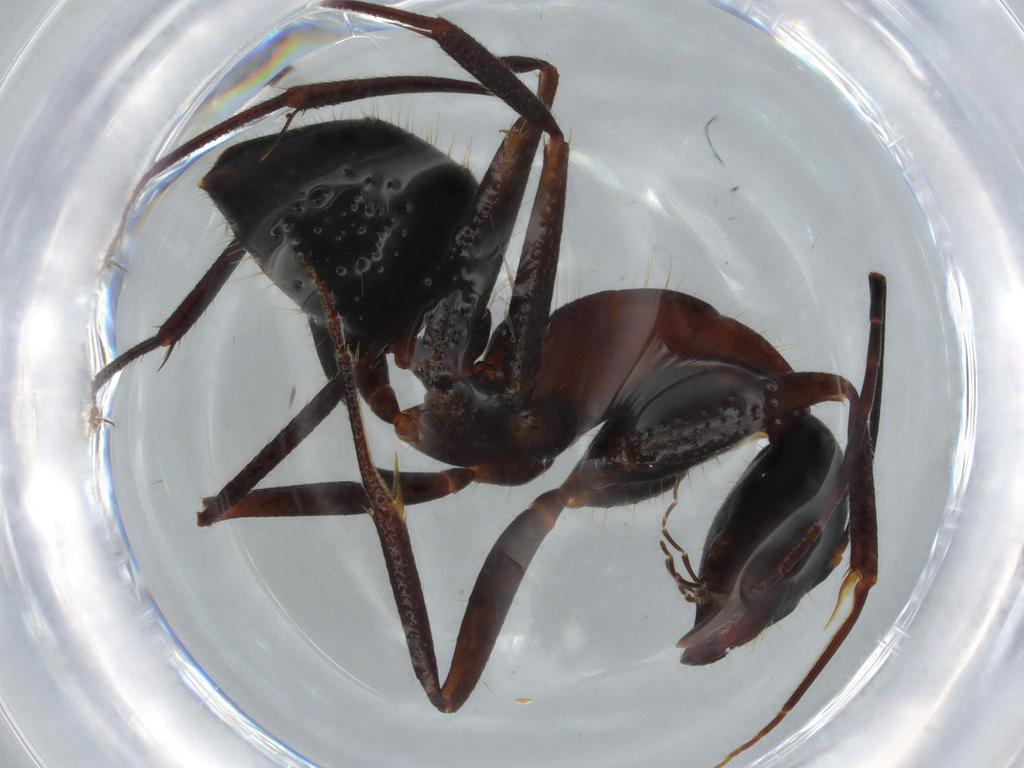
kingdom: Animalia
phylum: Arthropoda
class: Insecta
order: Hymenoptera
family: Formicidae
